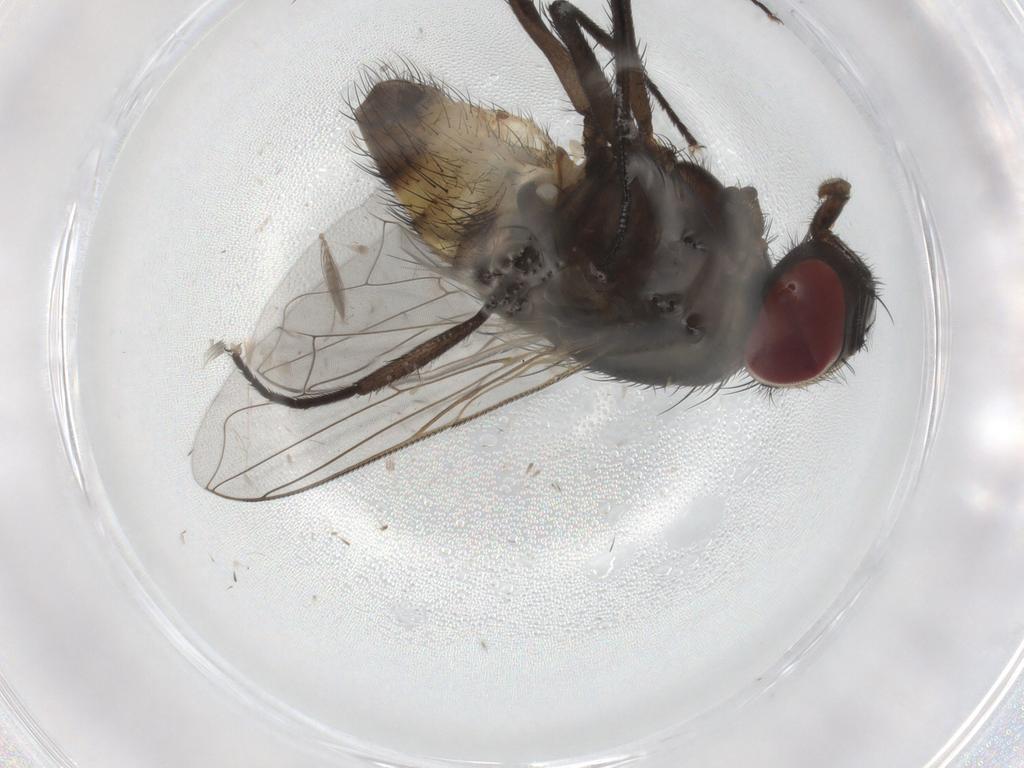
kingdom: Animalia
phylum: Arthropoda
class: Insecta
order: Diptera
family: Muscidae
